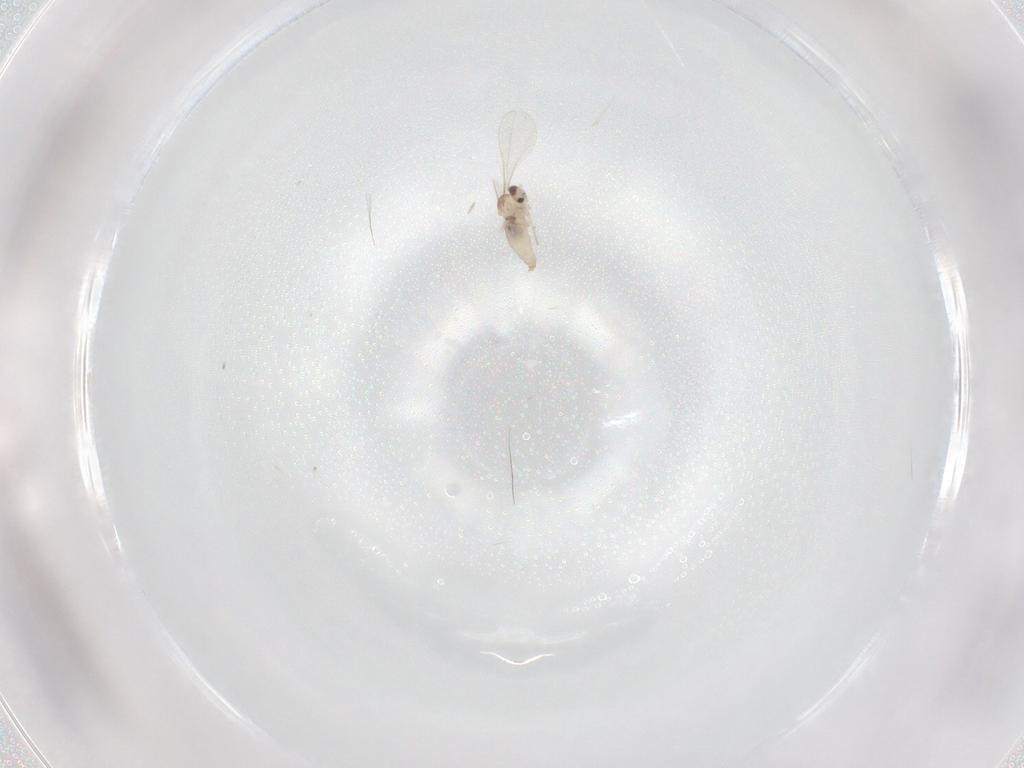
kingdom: Animalia
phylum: Arthropoda
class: Insecta
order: Diptera
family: Cecidomyiidae
